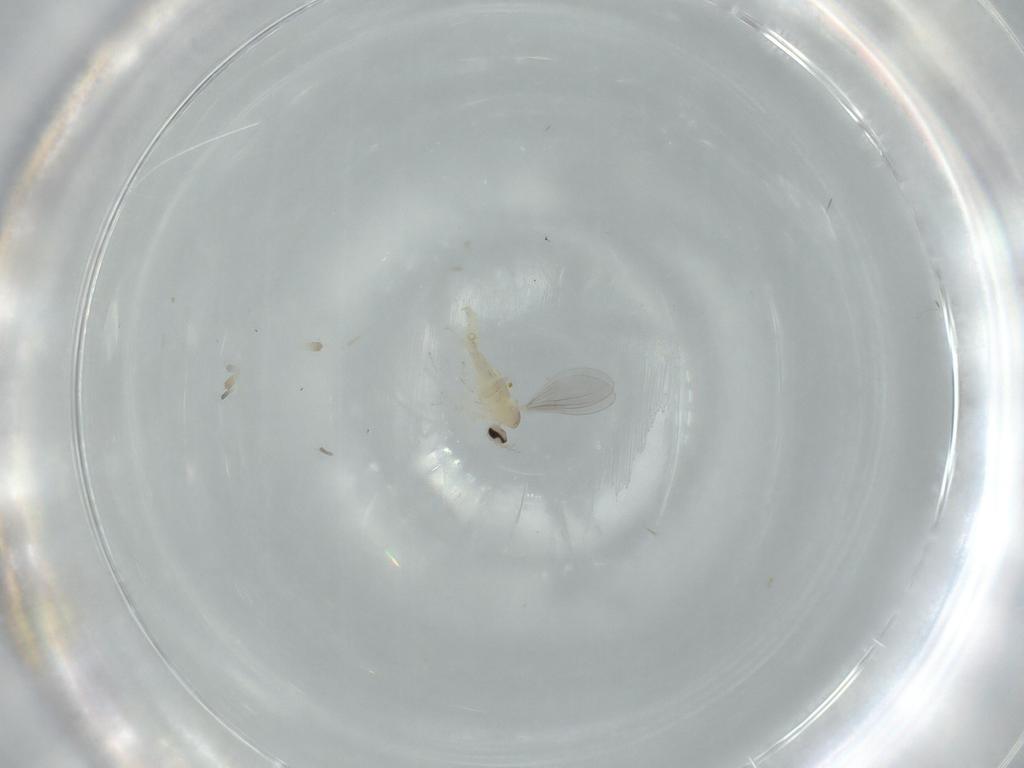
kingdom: Animalia
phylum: Arthropoda
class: Insecta
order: Diptera
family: Cecidomyiidae
